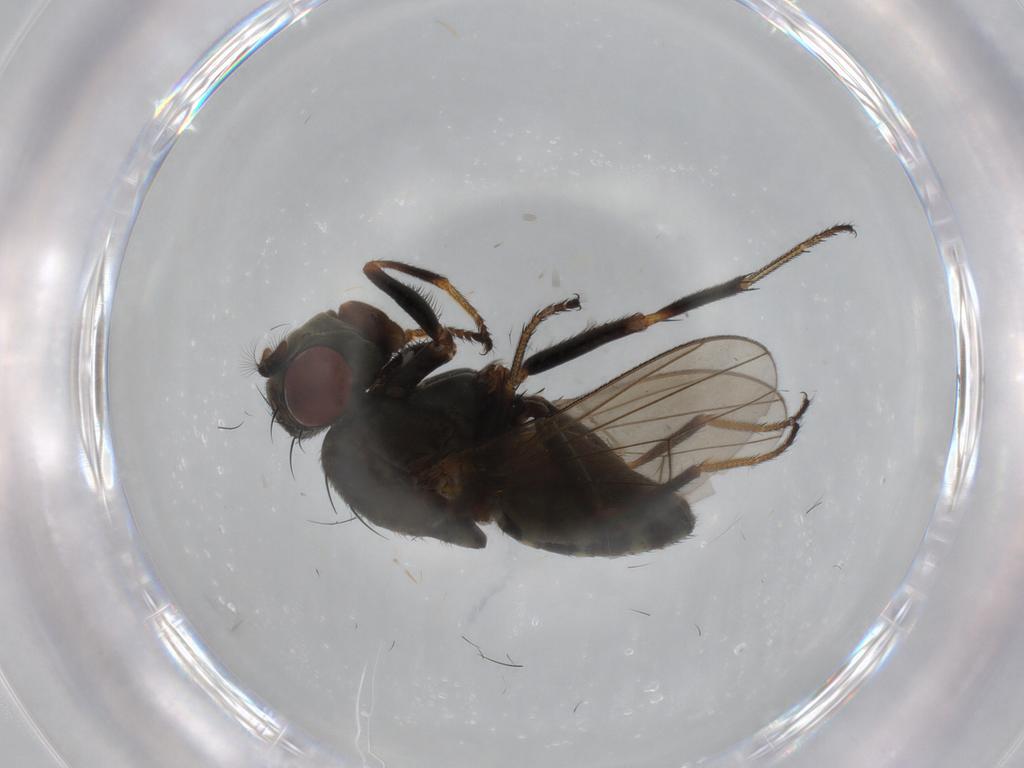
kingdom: Animalia
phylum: Arthropoda
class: Insecta
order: Diptera
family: Ephydridae
